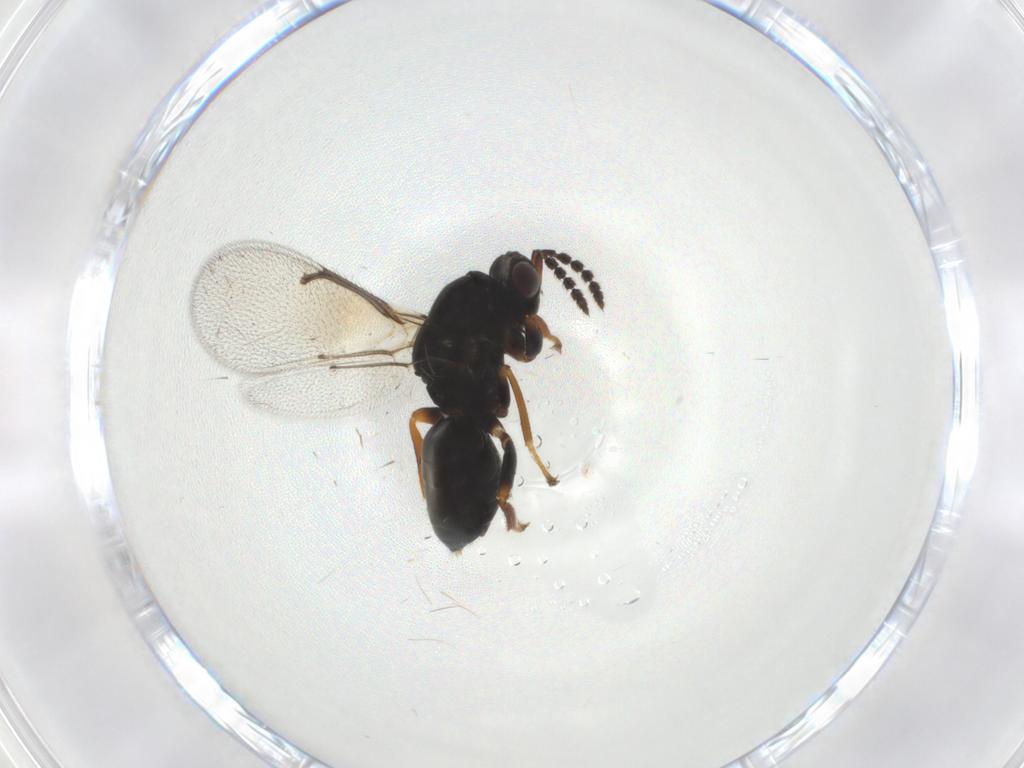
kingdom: Animalia
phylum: Arthropoda
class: Insecta
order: Hymenoptera
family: Eulophidae
